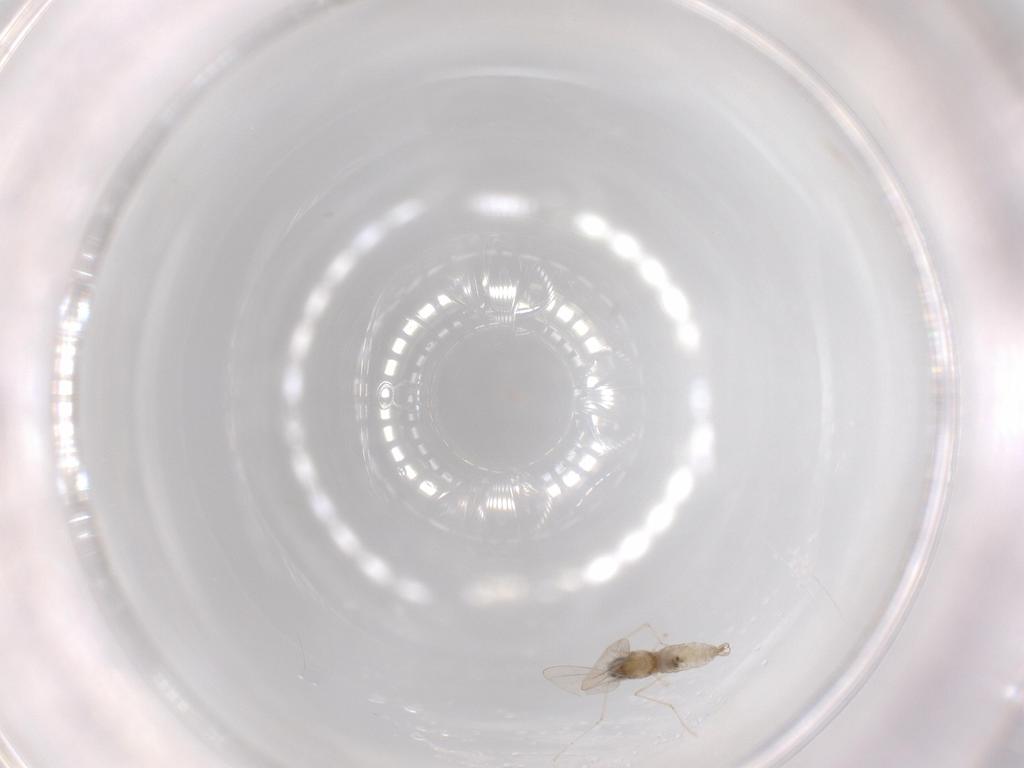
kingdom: Animalia
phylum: Arthropoda
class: Insecta
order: Diptera
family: Cecidomyiidae
